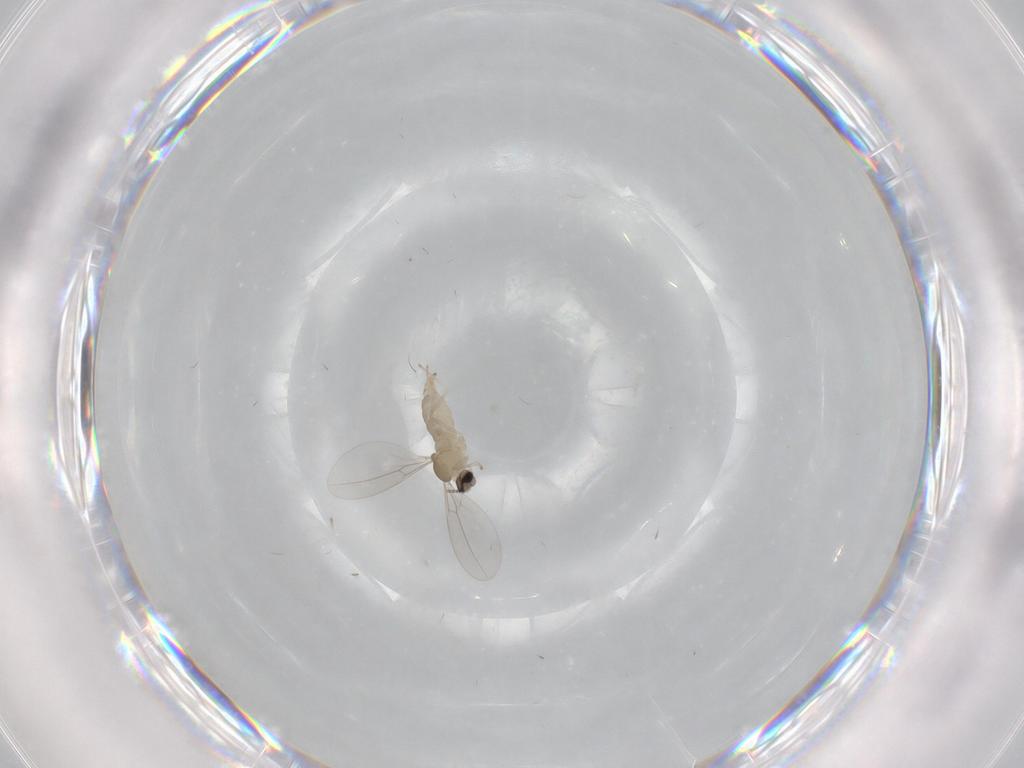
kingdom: Animalia
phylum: Arthropoda
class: Insecta
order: Diptera
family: Cecidomyiidae
